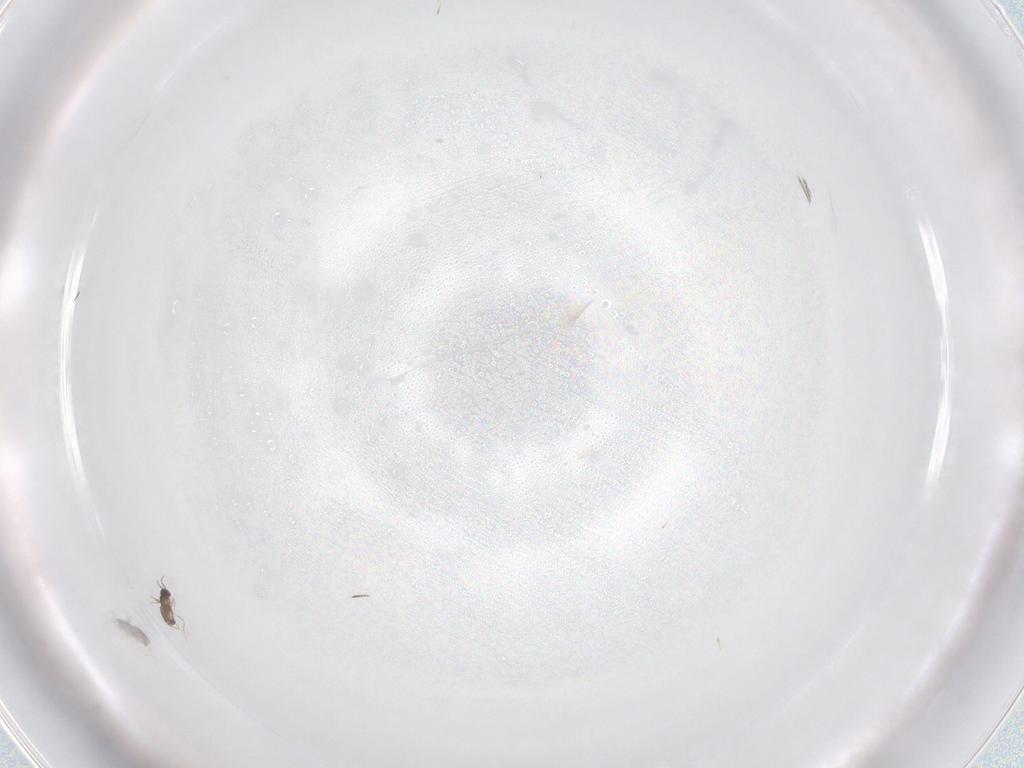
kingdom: Animalia
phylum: Arthropoda
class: Insecta
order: Hymenoptera
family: Mymaridae
